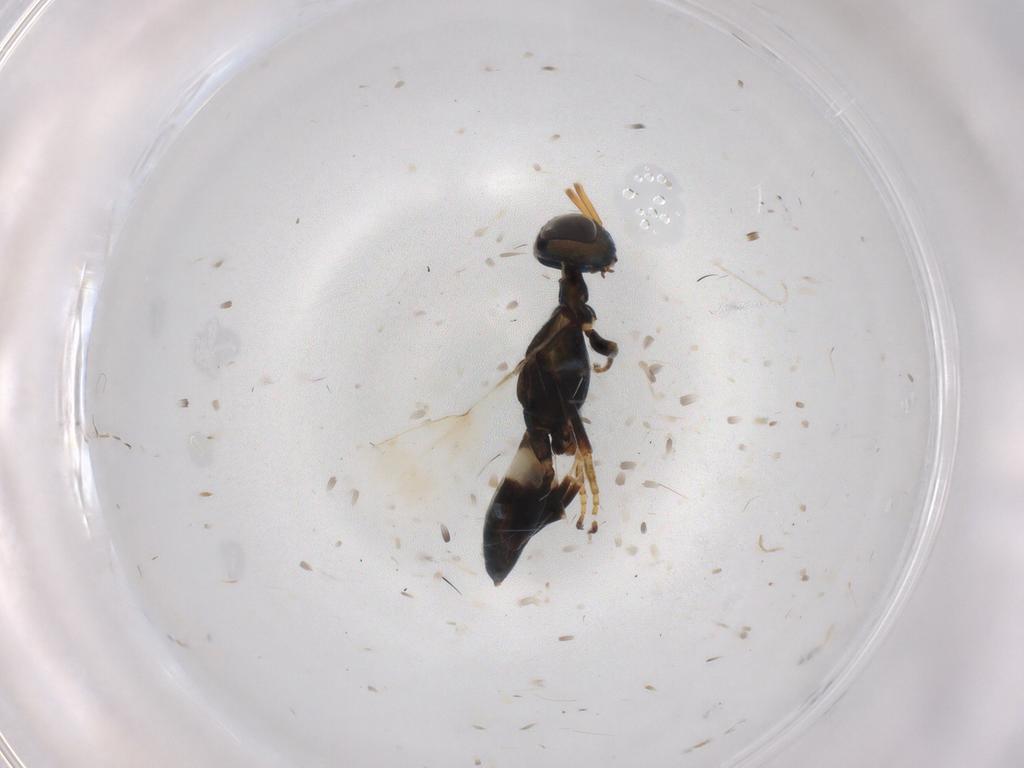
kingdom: Animalia
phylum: Arthropoda
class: Insecta
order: Hymenoptera
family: Eupelmidae
